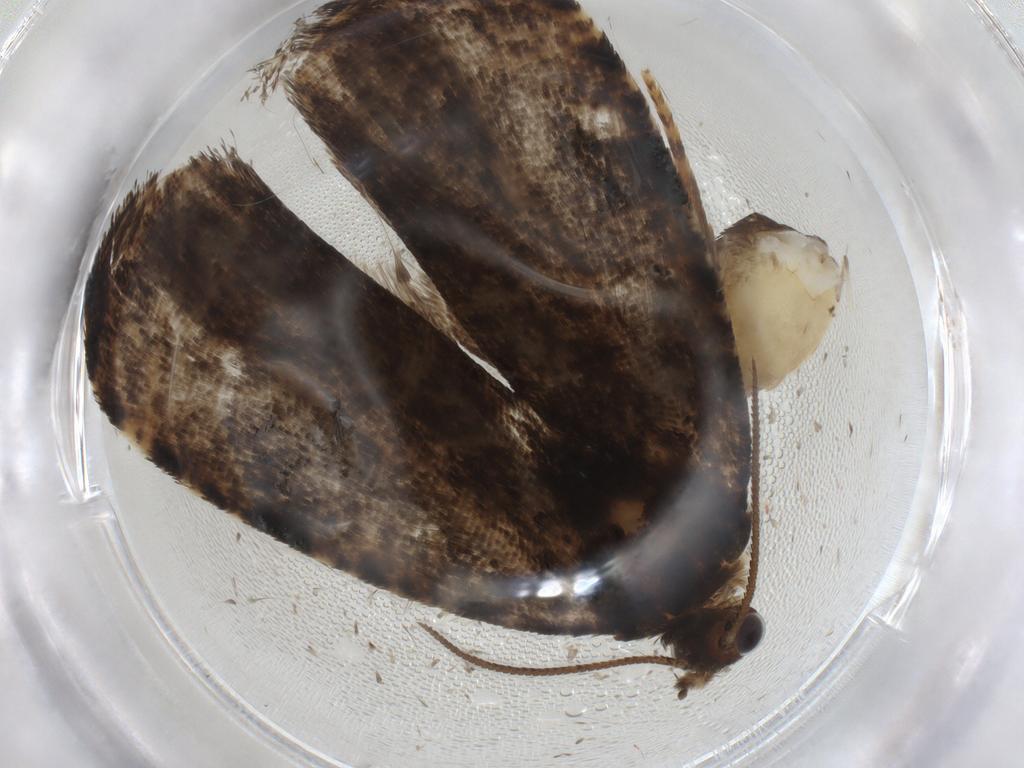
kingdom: Animalia
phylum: Arthropoda
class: Insecta
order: Lepidoptera
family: Tortricidae
